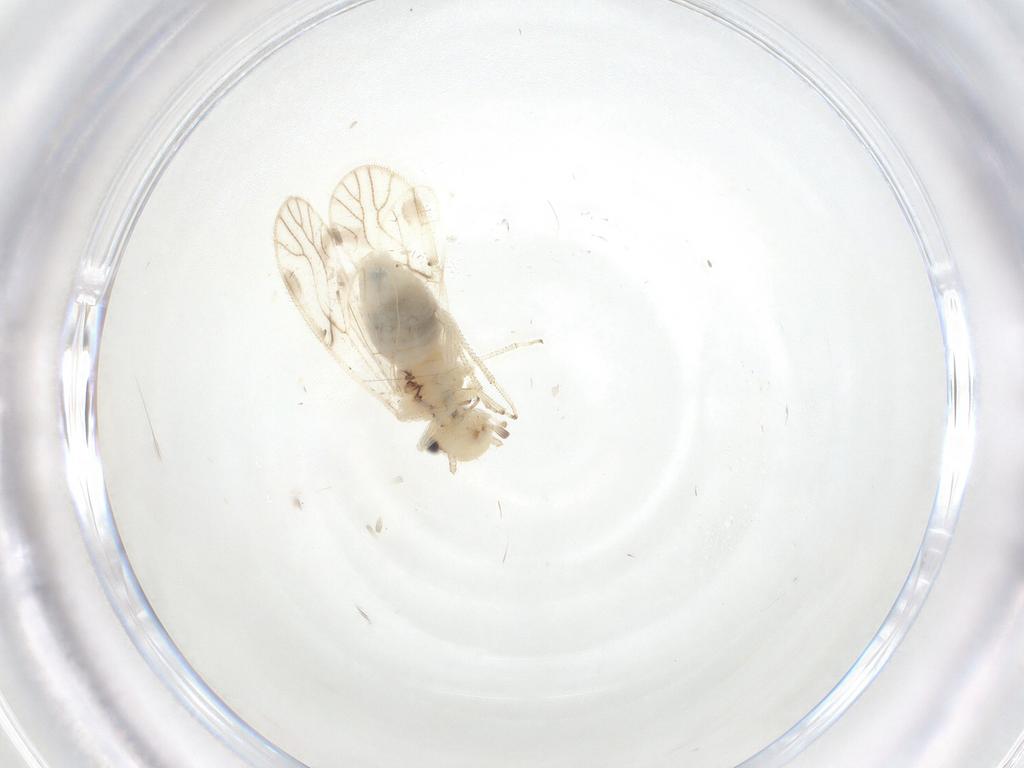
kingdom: Animalia
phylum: Arthropoda
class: Insecta
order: Psocodea
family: Caeciliusidae
